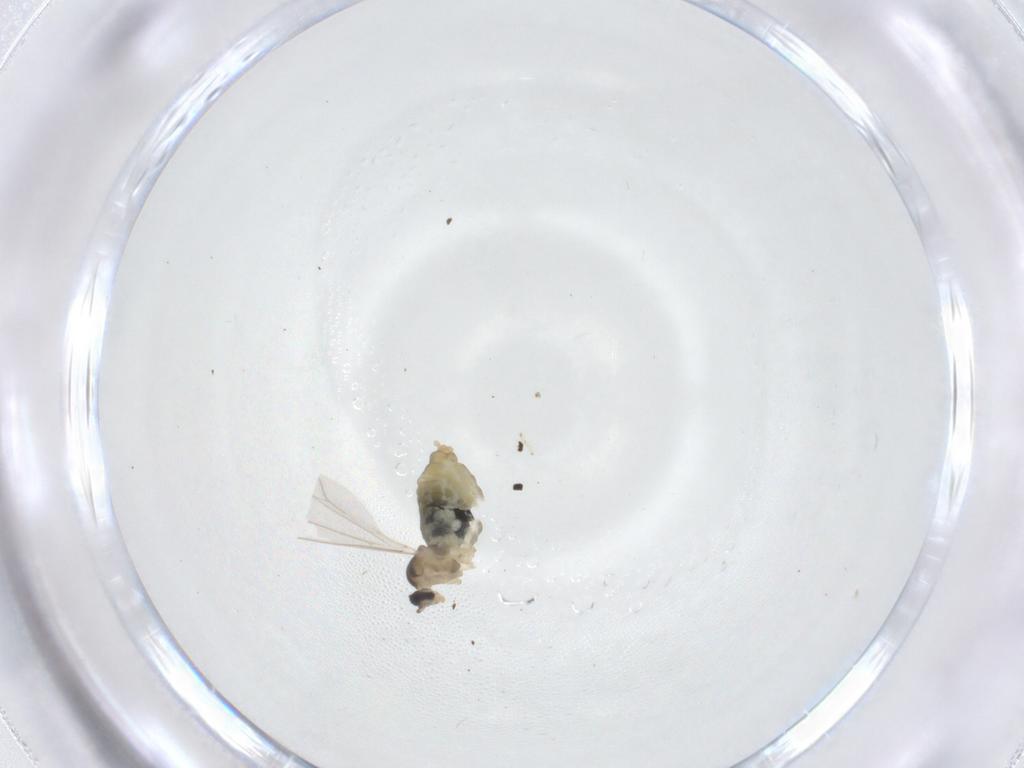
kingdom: Animalia
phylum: Arthropoda
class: Insecta
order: Diptera
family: Cecidomyiidae
